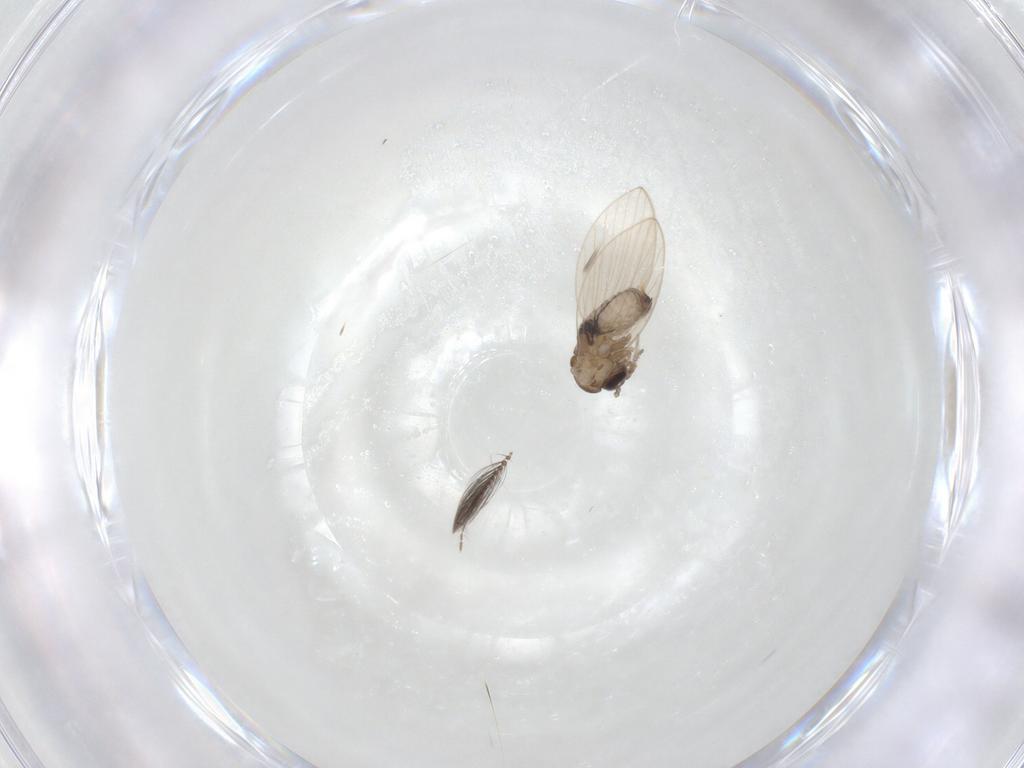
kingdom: Animalia
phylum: Arthropoda
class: Insecta
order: Diptera
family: Psychodidae
